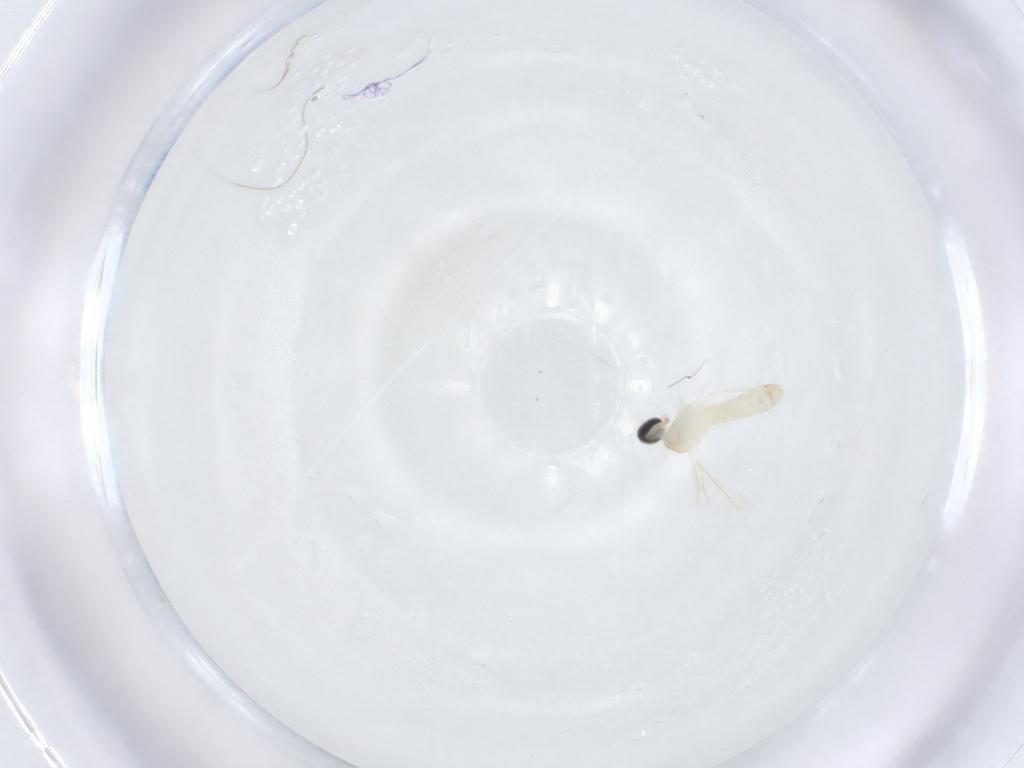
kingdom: Animalia
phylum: Arthropoda
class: Insecta
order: Diptera
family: Cecidomyiidae
